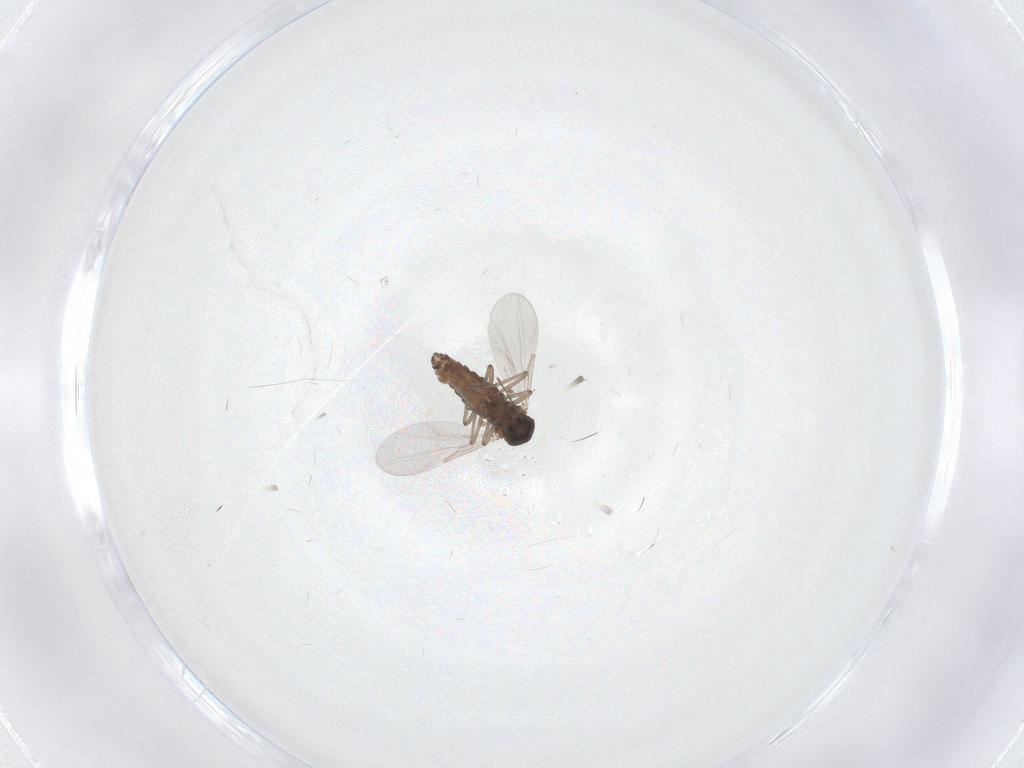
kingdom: Animalia
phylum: Arthropoda
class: Insecta
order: Diptera
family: Ceratopogonidae
